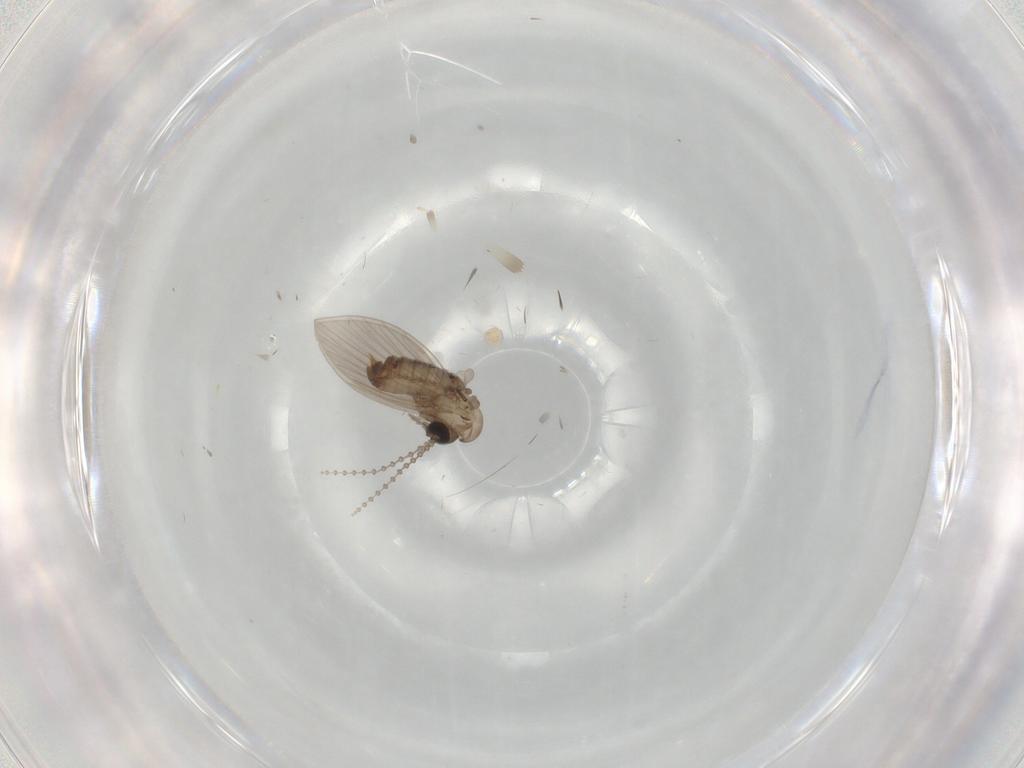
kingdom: Animalia
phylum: Arthropoda
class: Insecta
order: Diptera
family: Psychodidae
